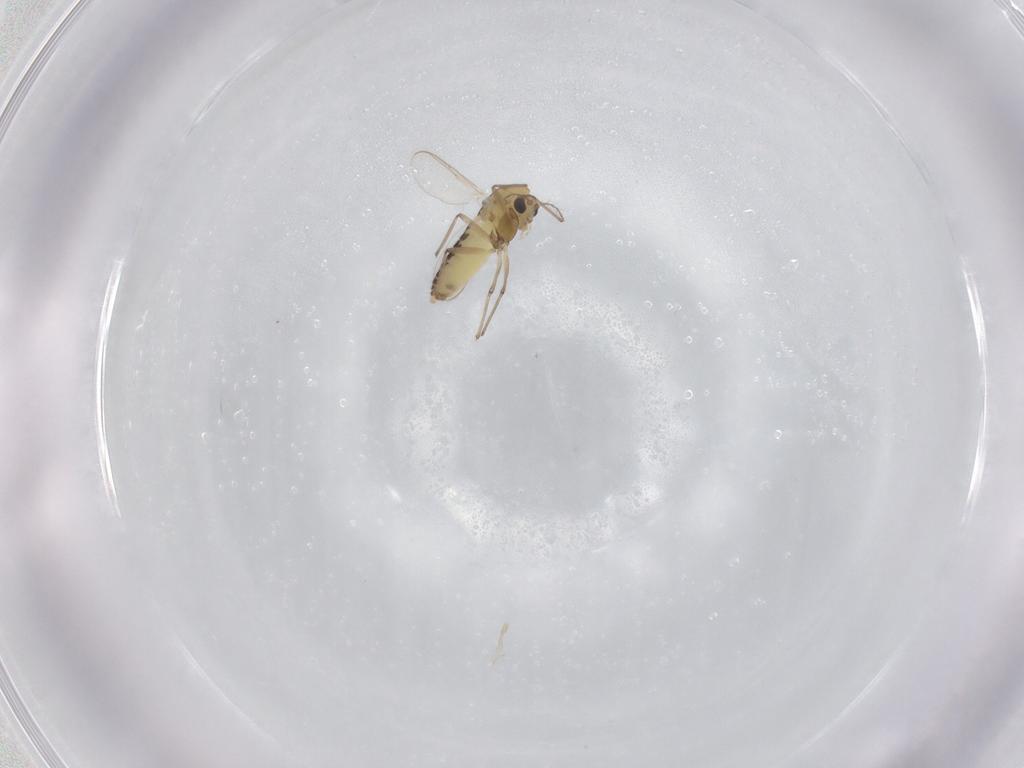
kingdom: Animalia
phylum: Arthropoda
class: Insecta
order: Diptera
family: Chironomidae
